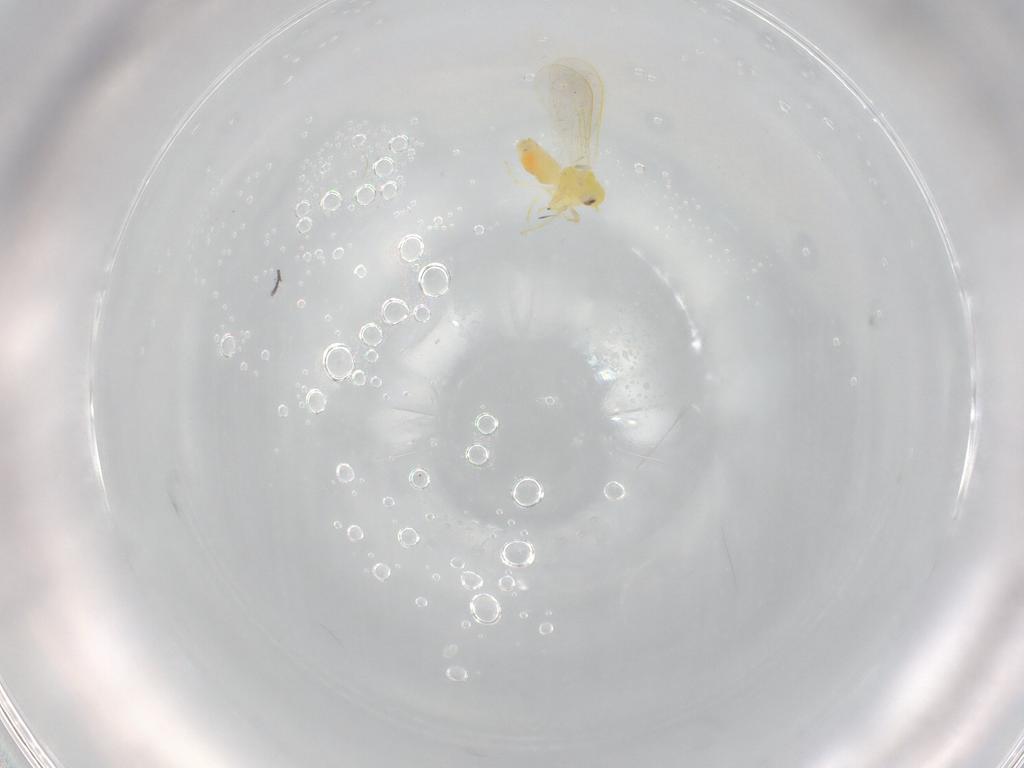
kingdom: Animalia
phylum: Arthropoda
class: Insecta
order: Hemiptera
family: Aleyrodidae
